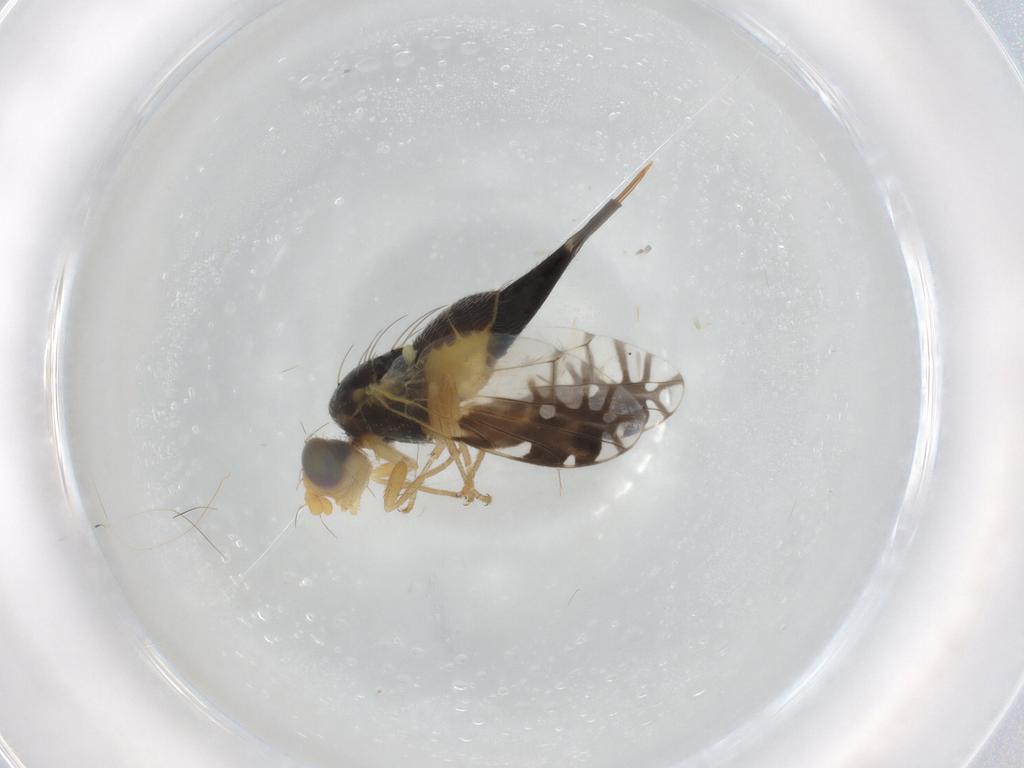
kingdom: Animalia
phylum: Arthropoda
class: Insecta
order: Diptera
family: Tephritidae
